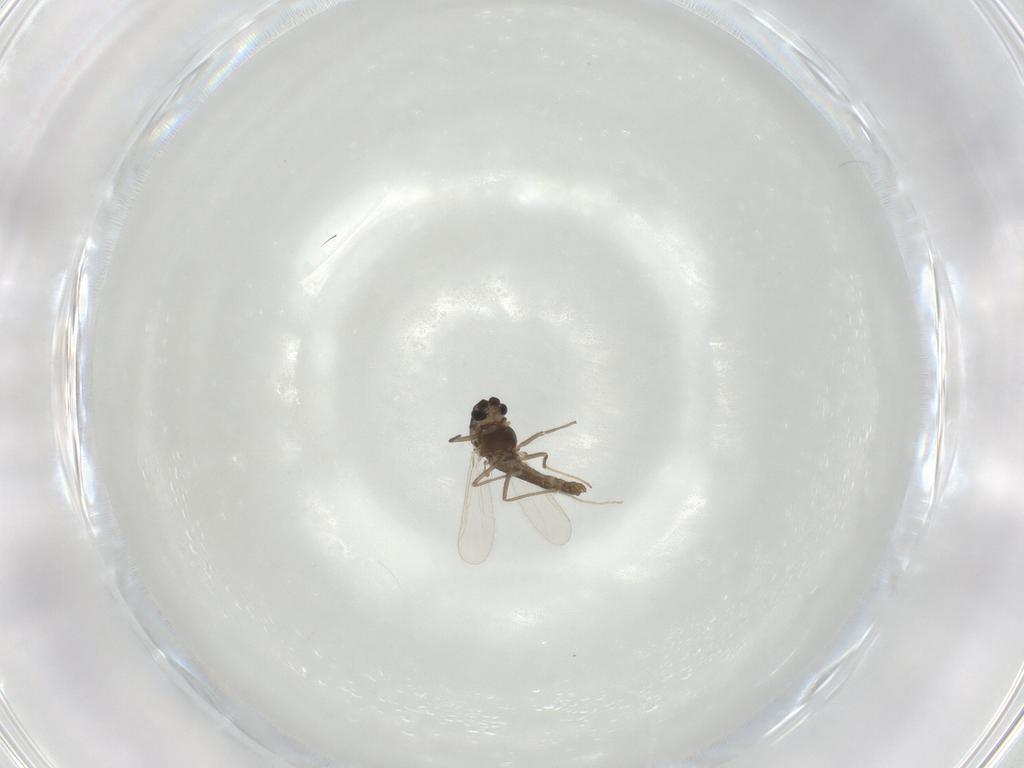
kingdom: Animalia
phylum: Arthropoda
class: Insecta
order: Diptera
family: Chironomidae
